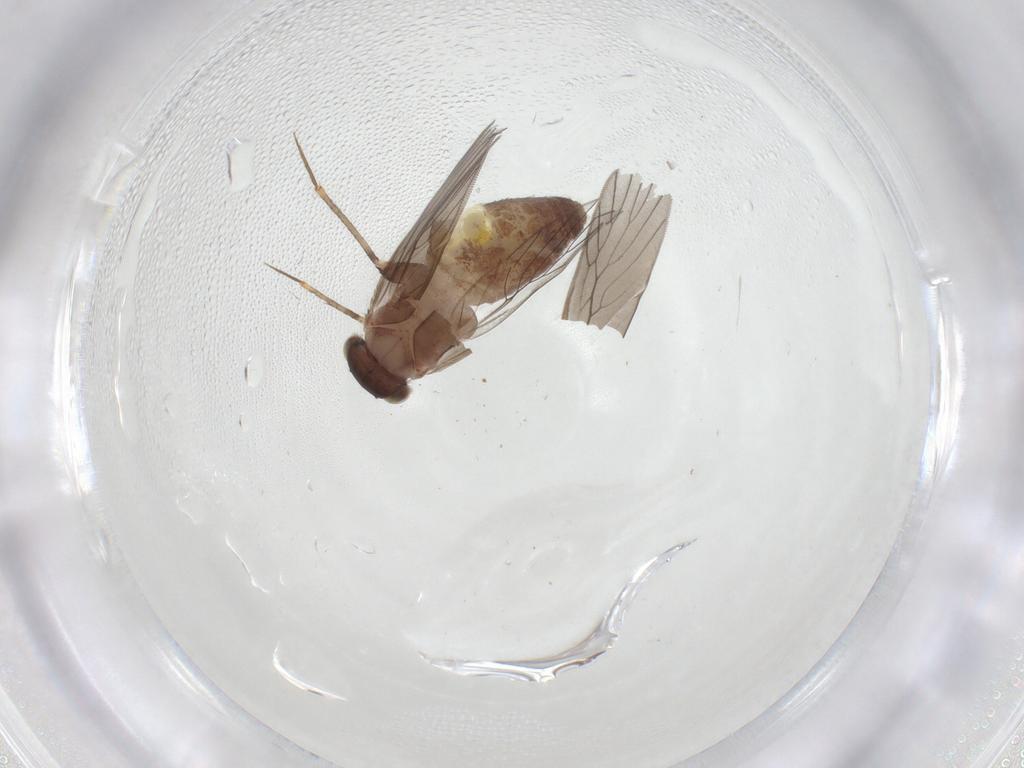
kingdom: Animalia
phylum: Arthropoda
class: Insecta
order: Psocodea
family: Lepidopsocidae
